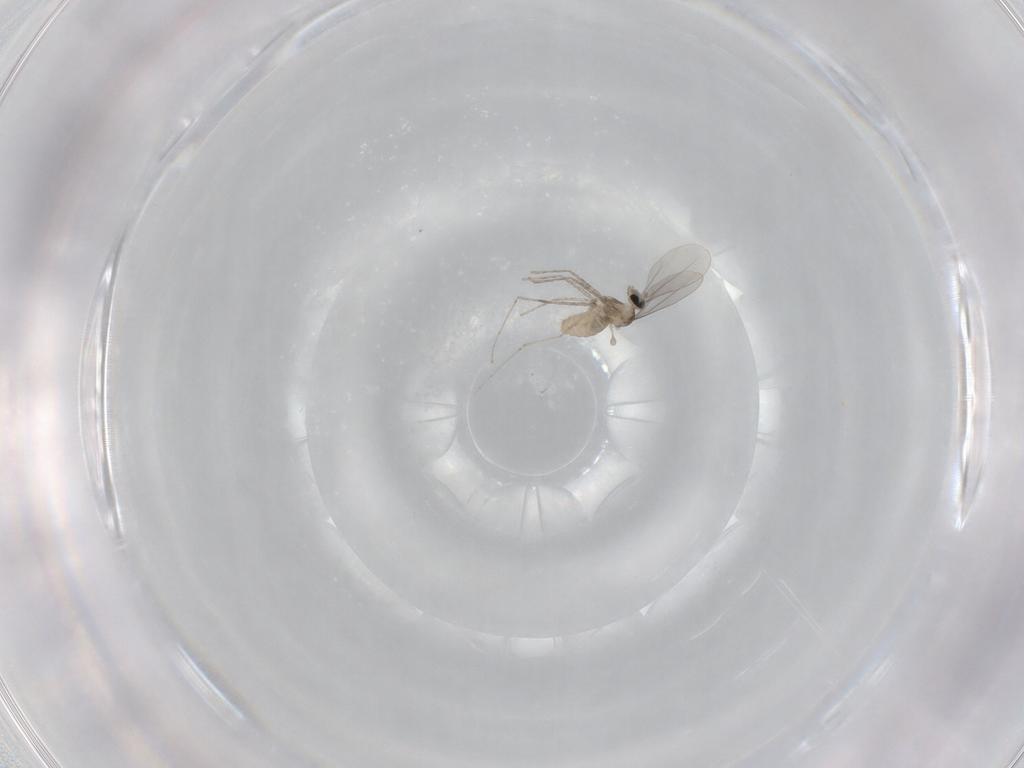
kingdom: Animalia
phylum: Arthropoda
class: Insecta
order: Diptera
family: Cecidomyiidae
